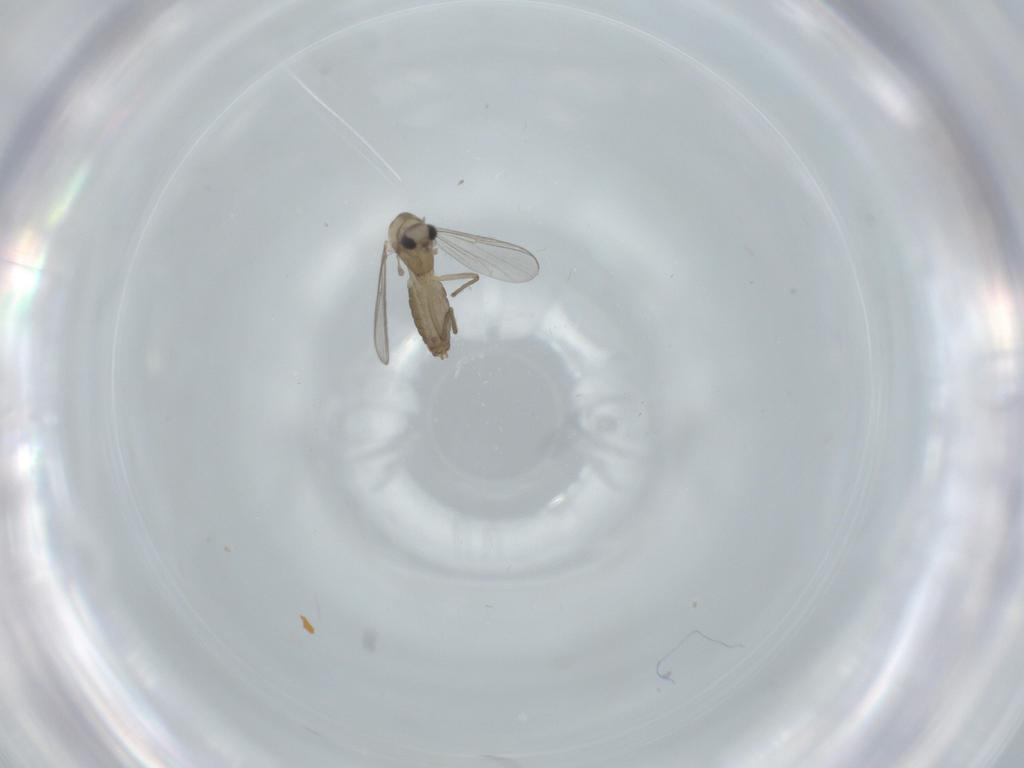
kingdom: Animalia
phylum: Arthropoda
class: Insecta
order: Diptera
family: Chironomidae
